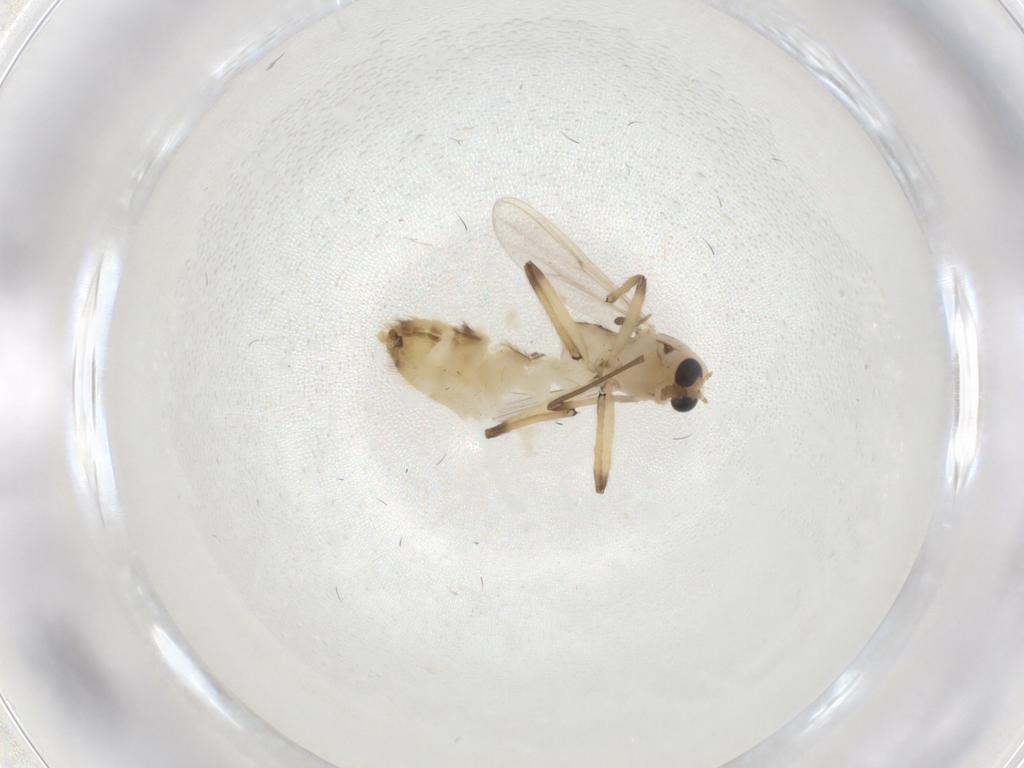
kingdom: Animalia
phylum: Arthropoda
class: Insecta
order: Diptera
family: Chironomidae
